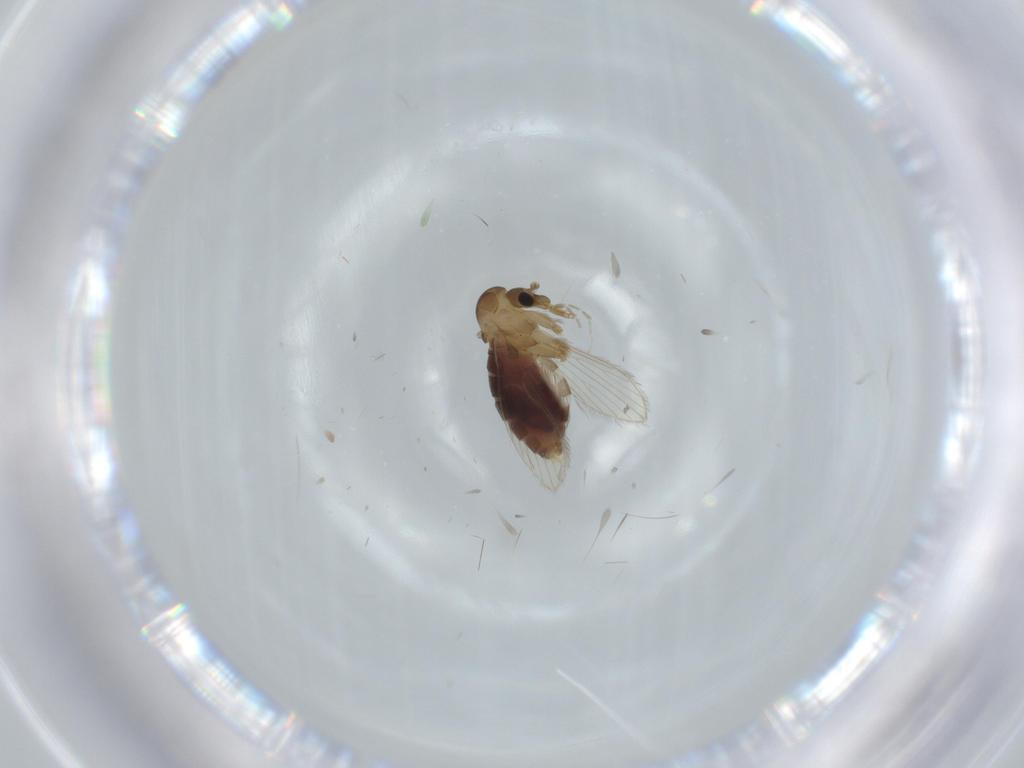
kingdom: Animalia
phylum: Arthropoda
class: Insecta
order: Diptera
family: Psychodidae
